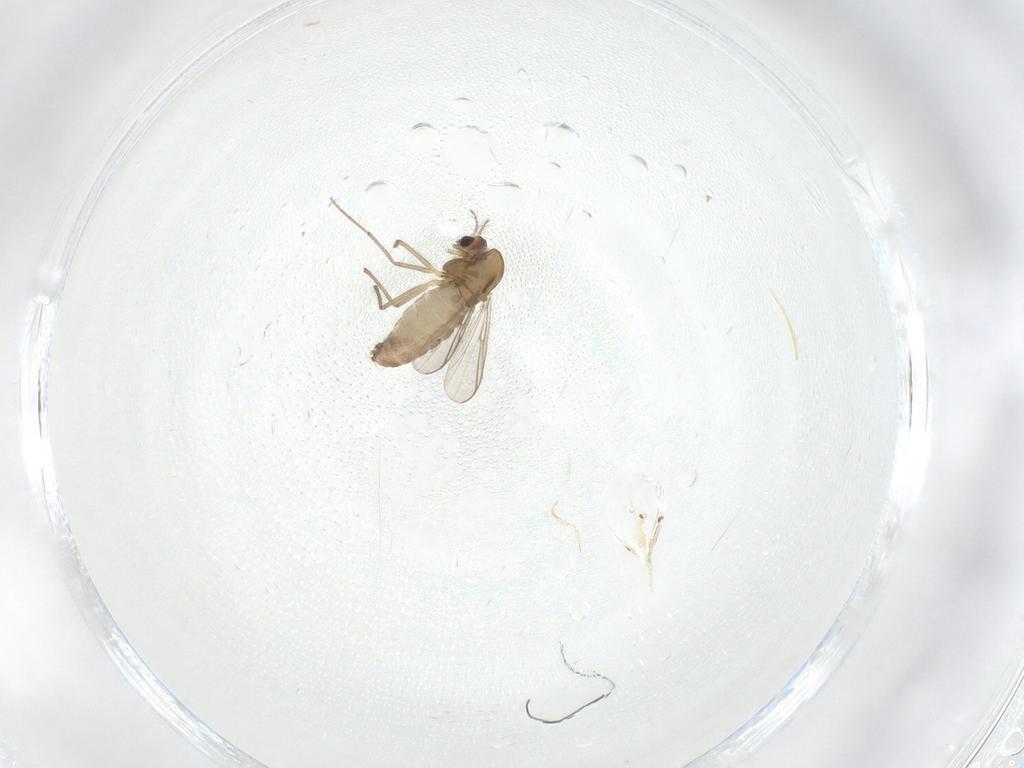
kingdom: Animalia
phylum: Arthropoda
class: Insecta
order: Diptera
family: Chironomidae
